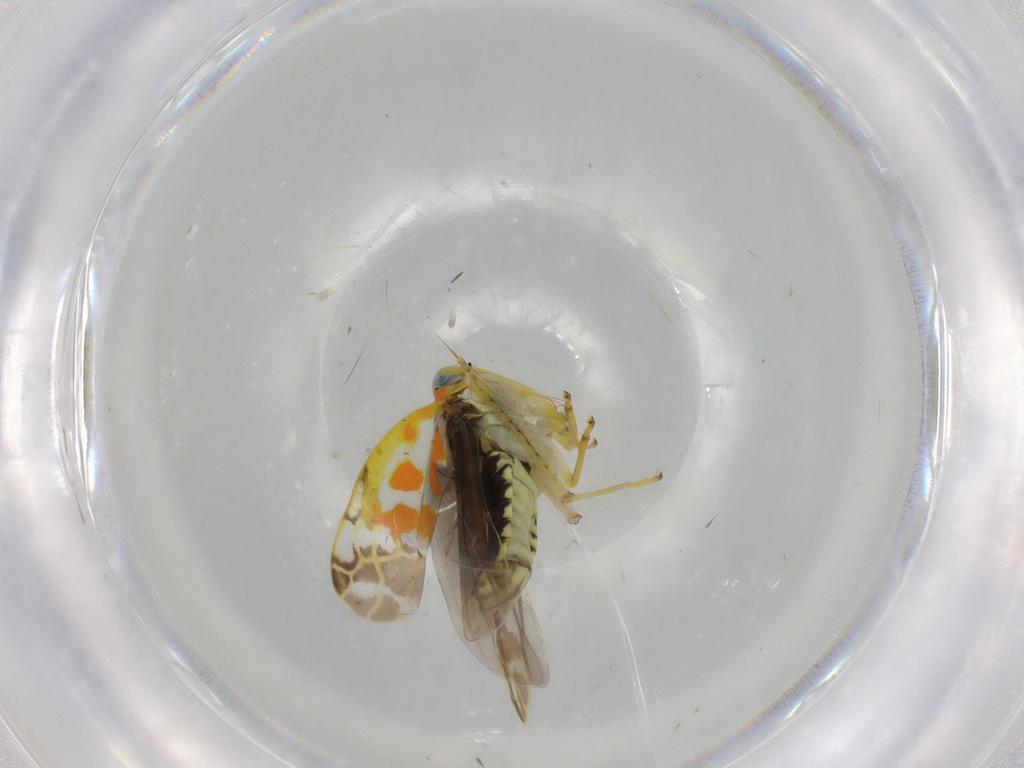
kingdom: Animalia
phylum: Arthropoda
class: Insecta
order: Hemiptera
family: Cicadellidae
